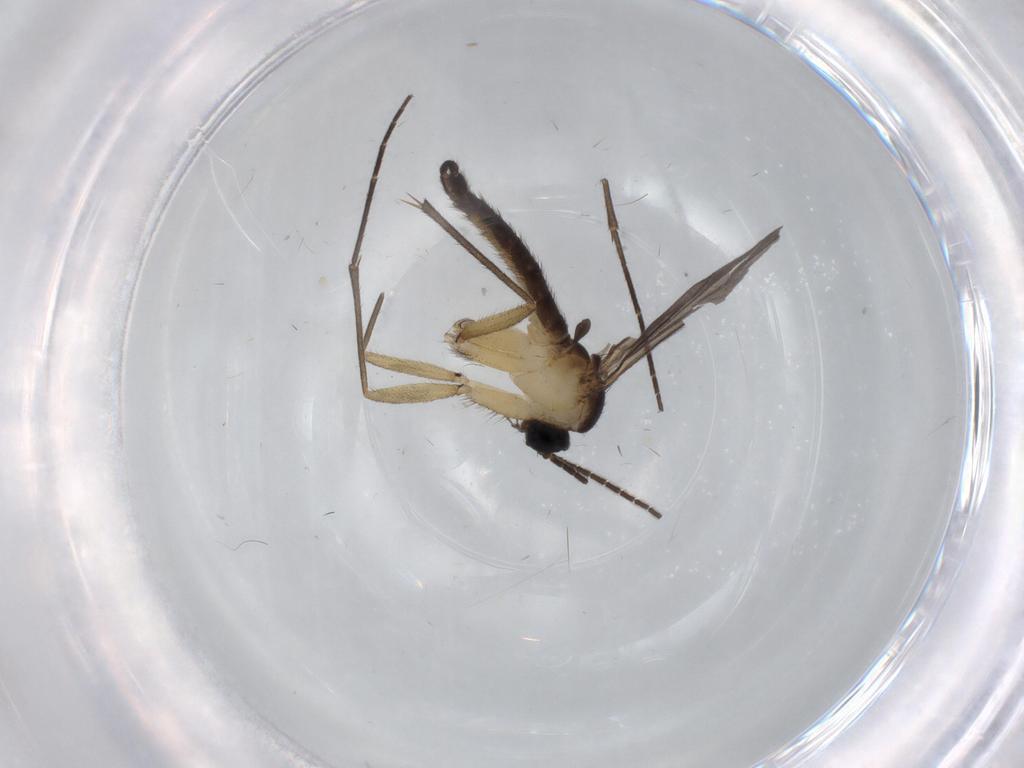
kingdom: Animalia
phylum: Arthropoda
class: Insecta
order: Diptera
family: Sciaridae
